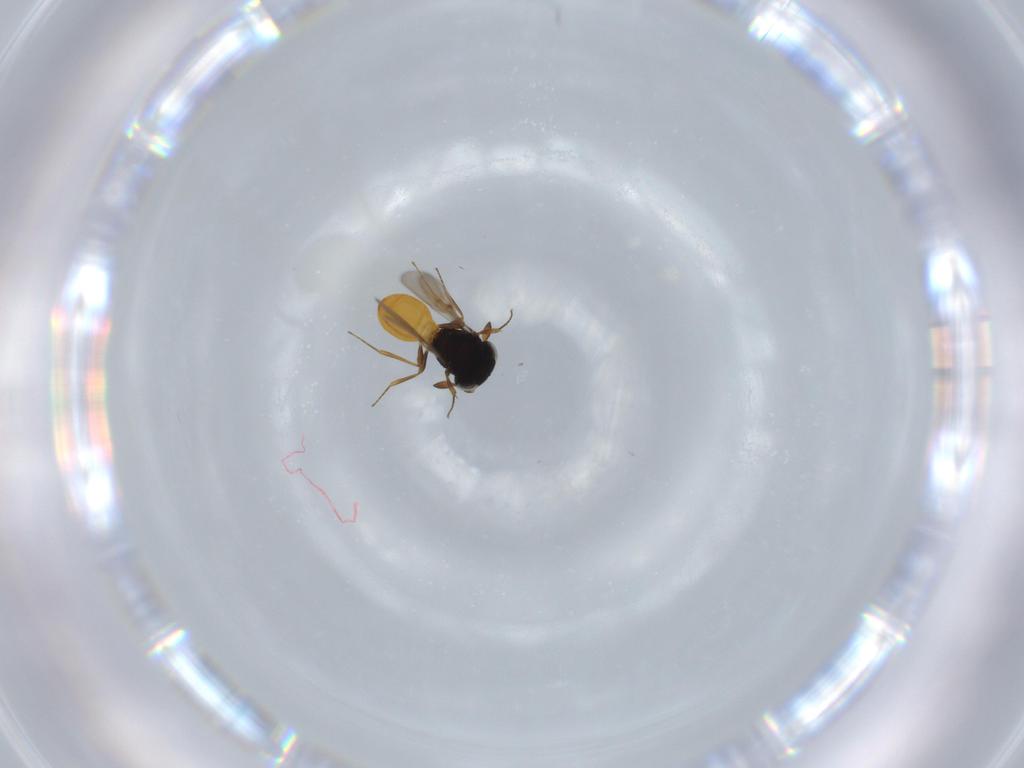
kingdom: Animalia
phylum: Arthropoda
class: Insecta
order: Hymenoptera
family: Scelionidae
